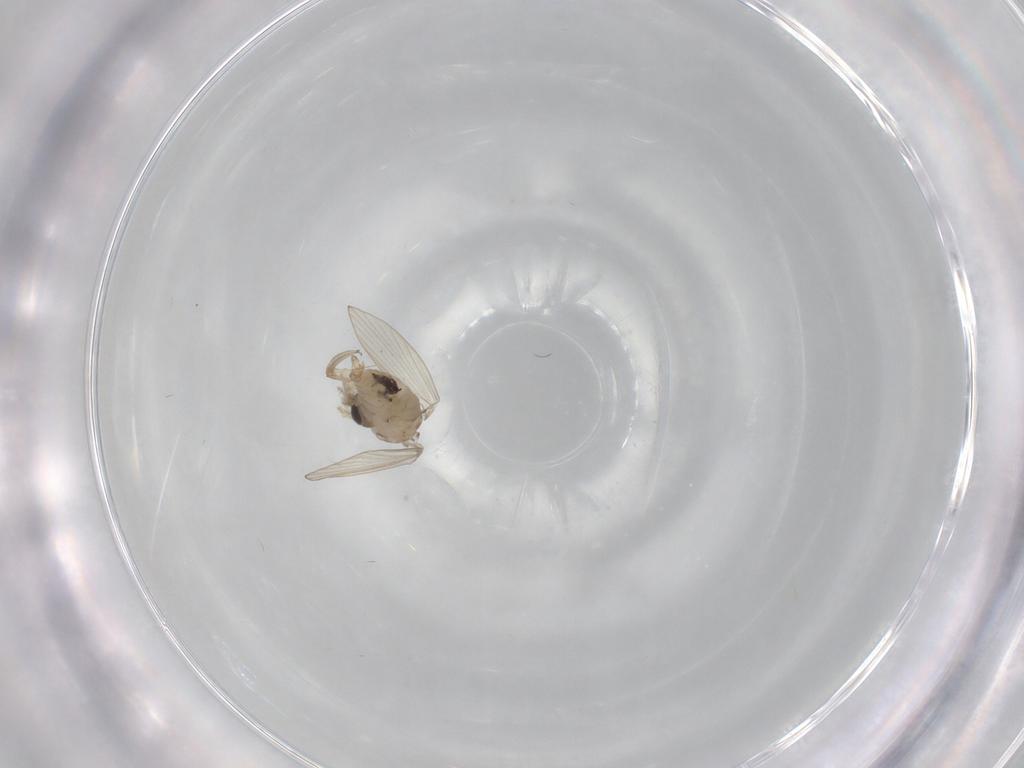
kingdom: Animalia
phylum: Arthropoda
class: Insecta
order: Diptera
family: Psychodidae
